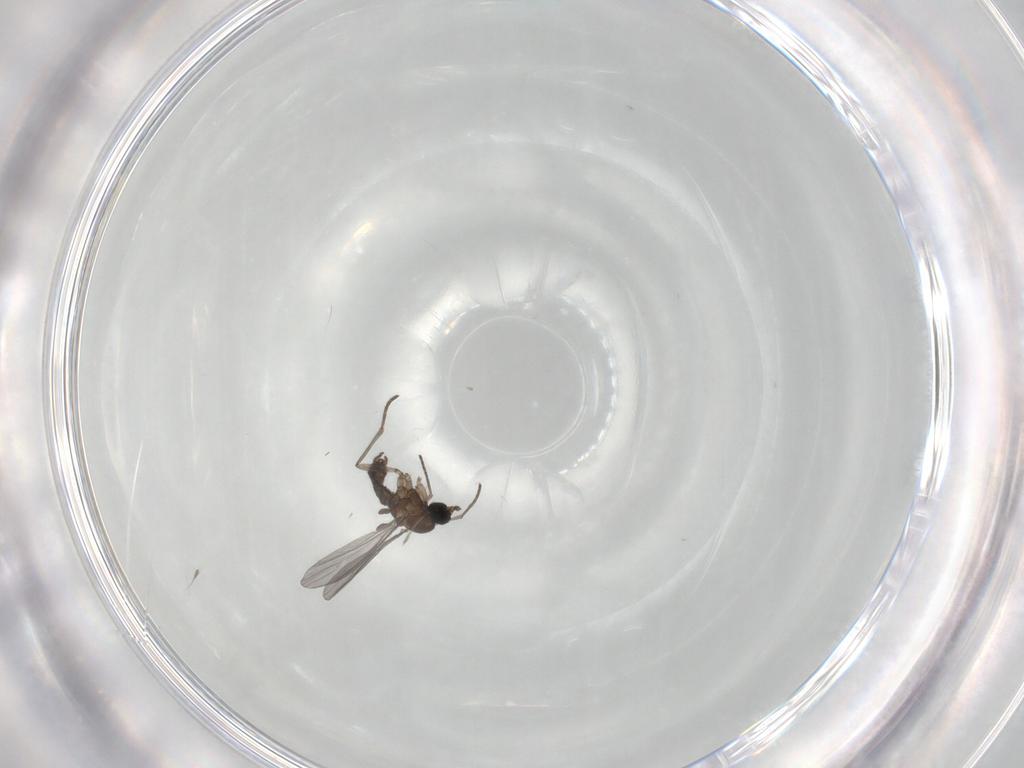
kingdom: Animalia
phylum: Arthropoda
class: Insecta
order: Diptera
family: Sciaridae
